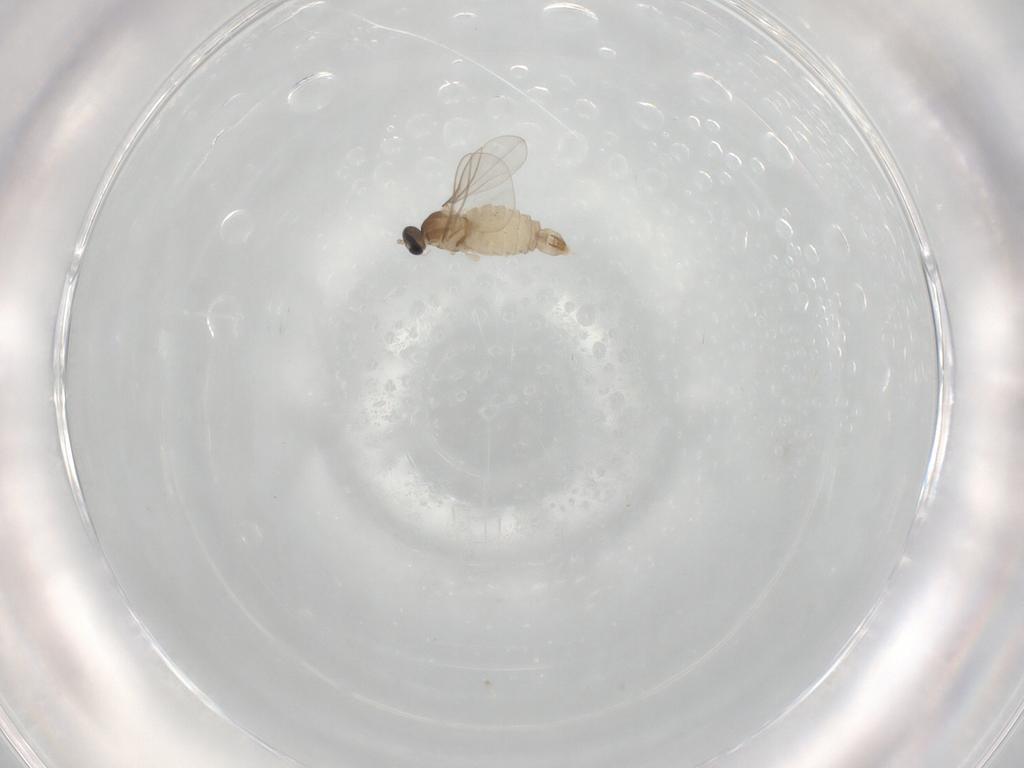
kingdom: Animalia
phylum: Arthropoda
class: Insecta
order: Diptera
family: Cecidomyiidae
